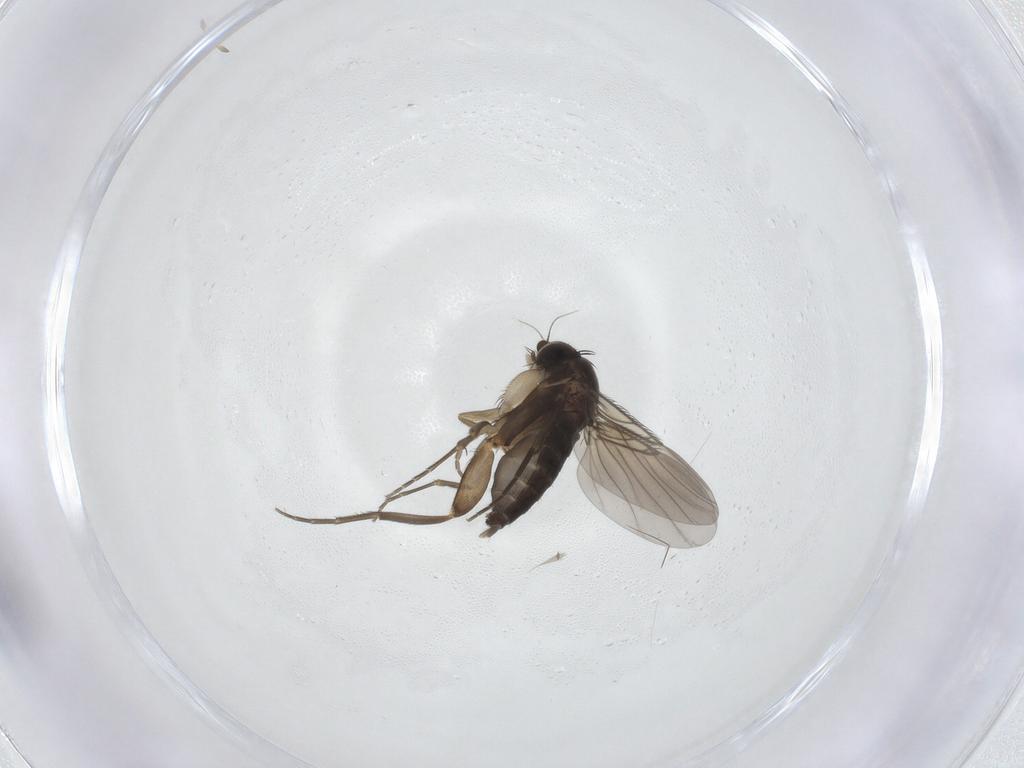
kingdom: Animalia
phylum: Arthropoda
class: Insecta
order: Diptera
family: Phoridae
